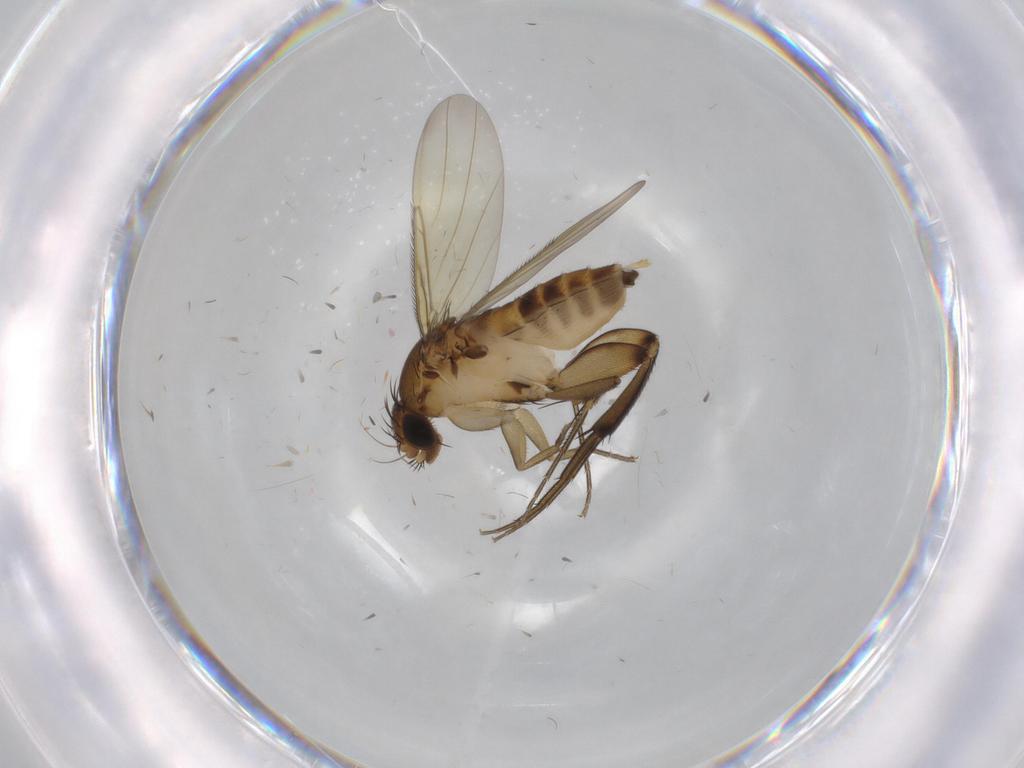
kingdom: Animalia
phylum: Arthropoda
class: Insecta
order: Diptera
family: Phoridae
